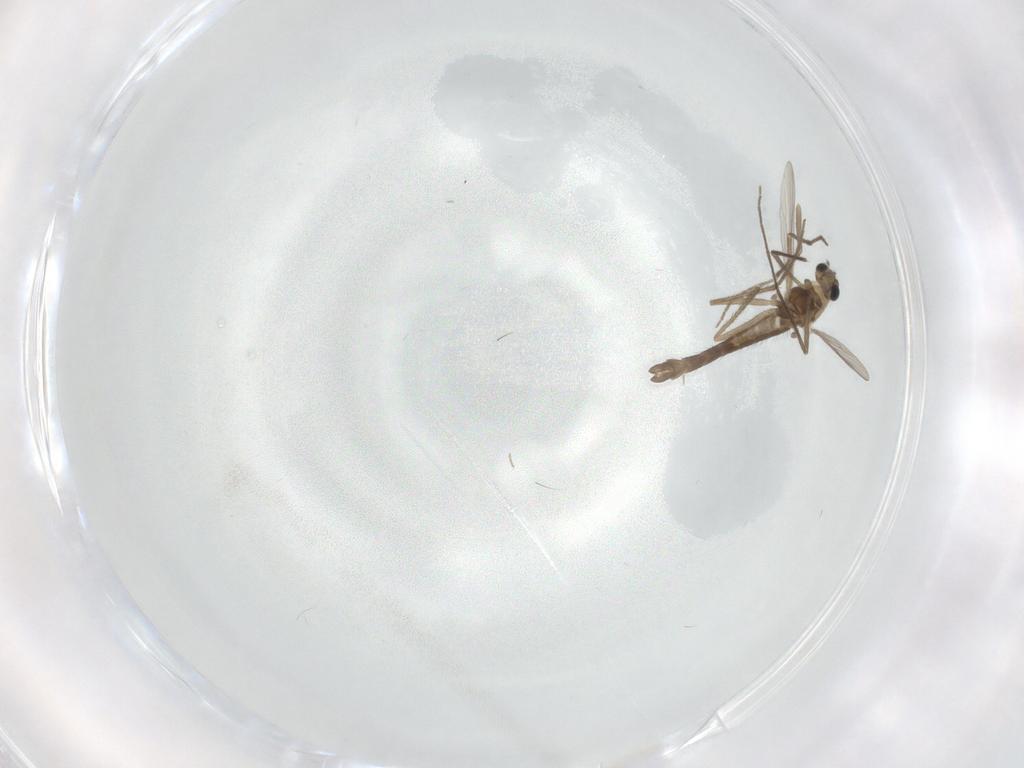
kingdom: Animalia
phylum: Arthropoda
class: Insecta
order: Diptera
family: Chironomidae
